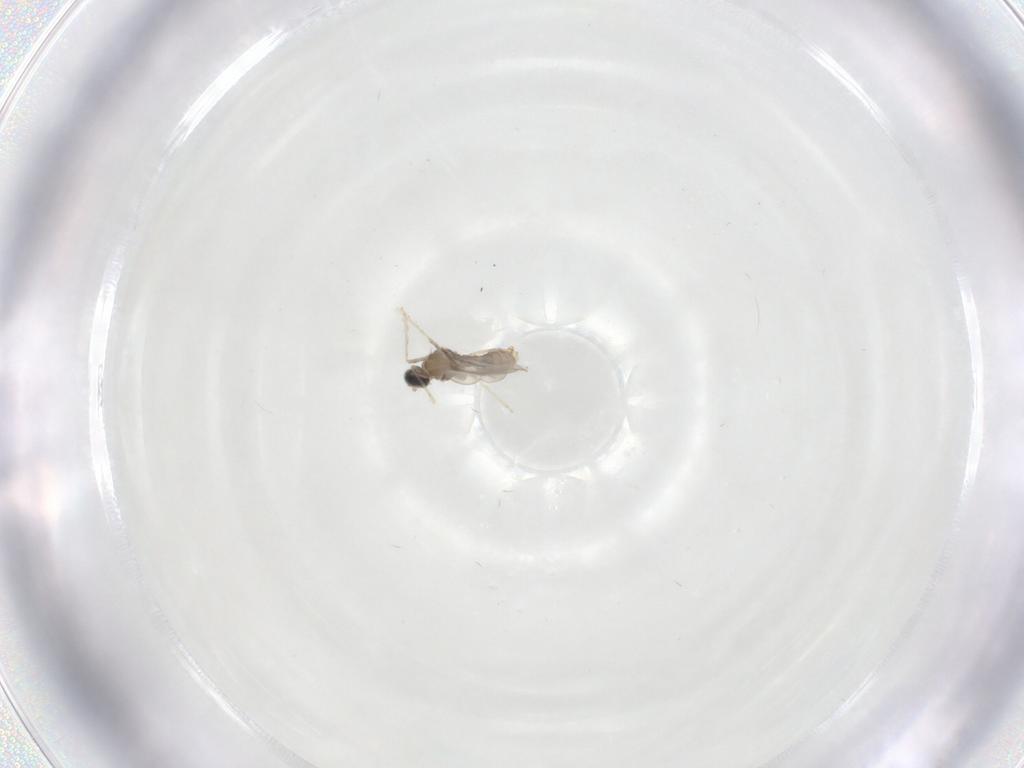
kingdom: Animalia
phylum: Arthropoda
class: Insecta
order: Diptera
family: Cecidomyiidae
